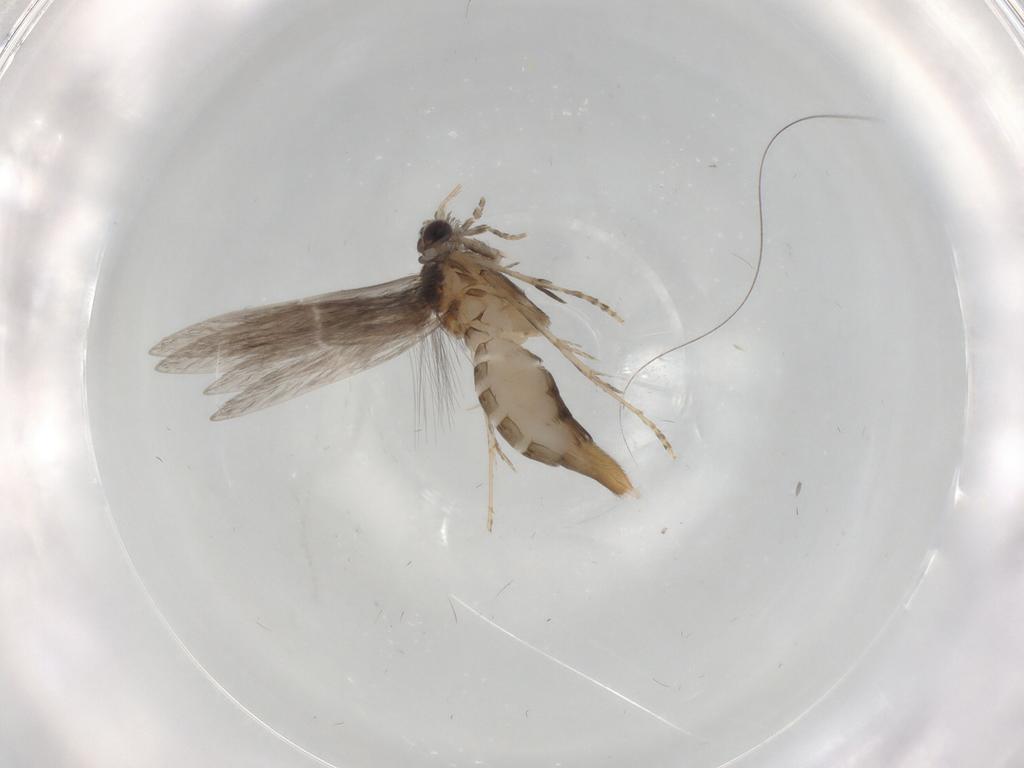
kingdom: Animalia
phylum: Arthropoda
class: Insecta
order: Trichoptera
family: Hydroptilidae
